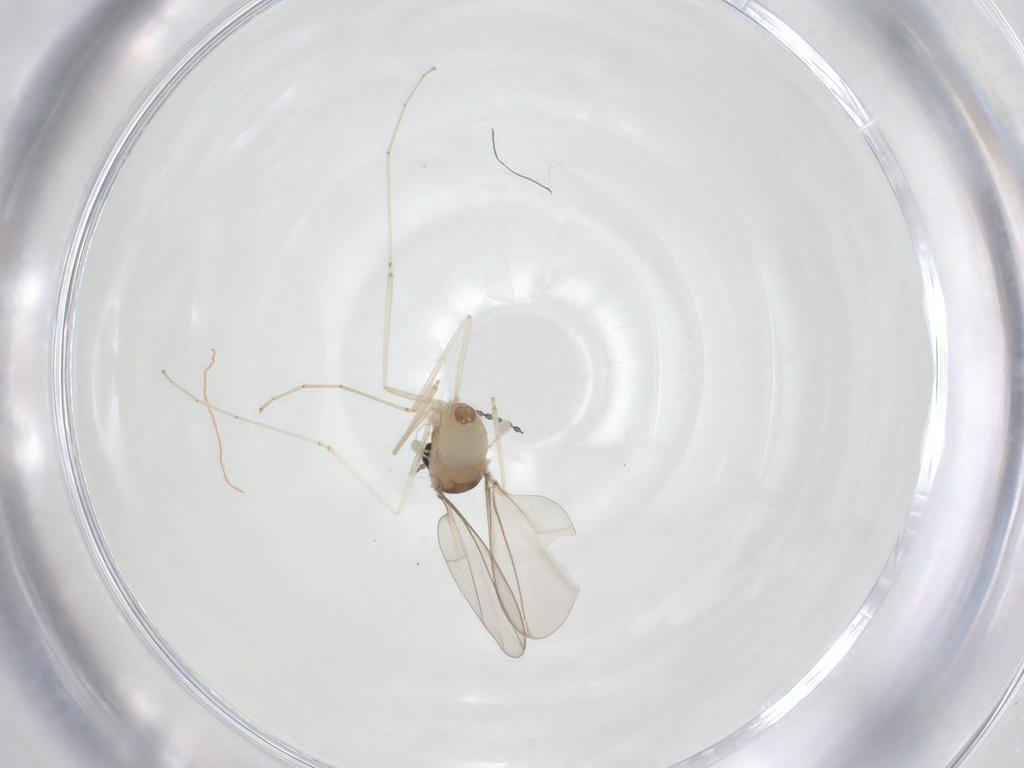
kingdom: Animalia
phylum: Arthropoda
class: Insecta
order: Diptera
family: Cecidomyiidae
